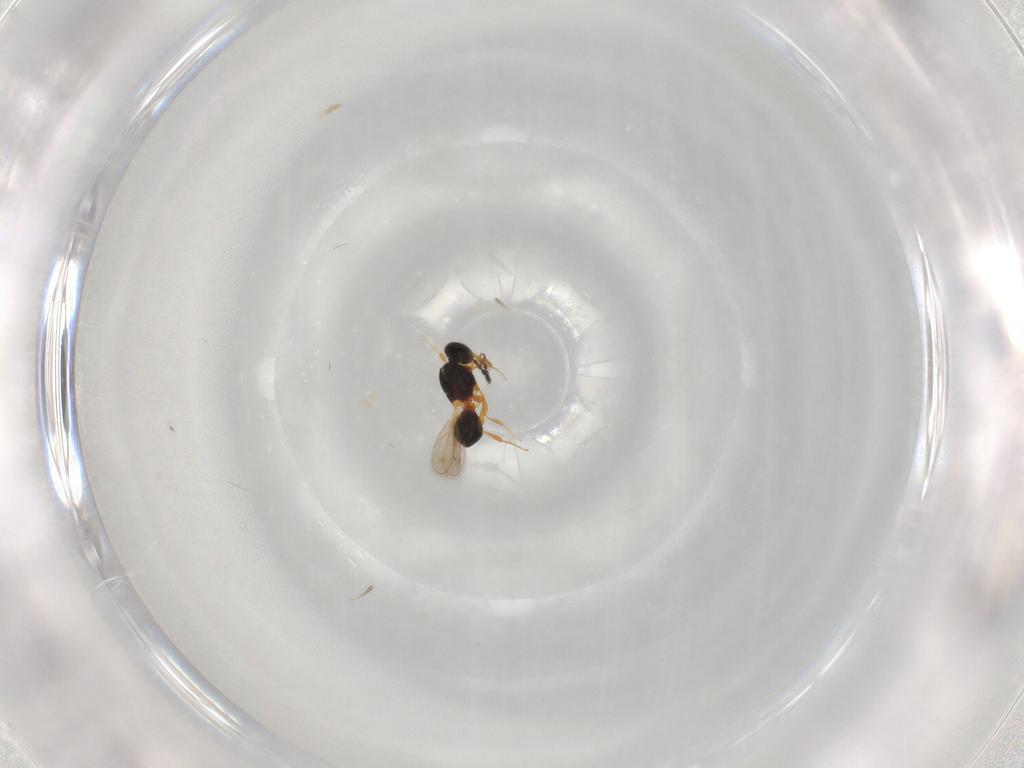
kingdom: Animalia
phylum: Arthropoda
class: Insecta
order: Hymenoptera
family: Platygastridae
